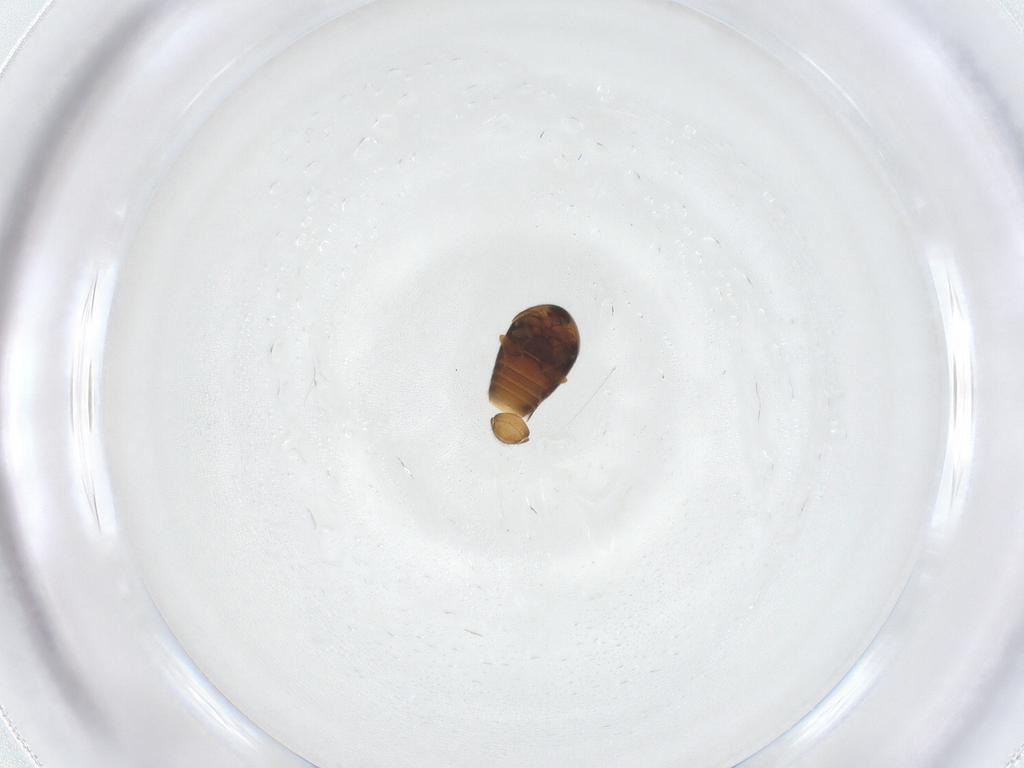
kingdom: Animalia
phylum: Arthropoda
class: Insecta
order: Coleoptera
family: Corylophidae
